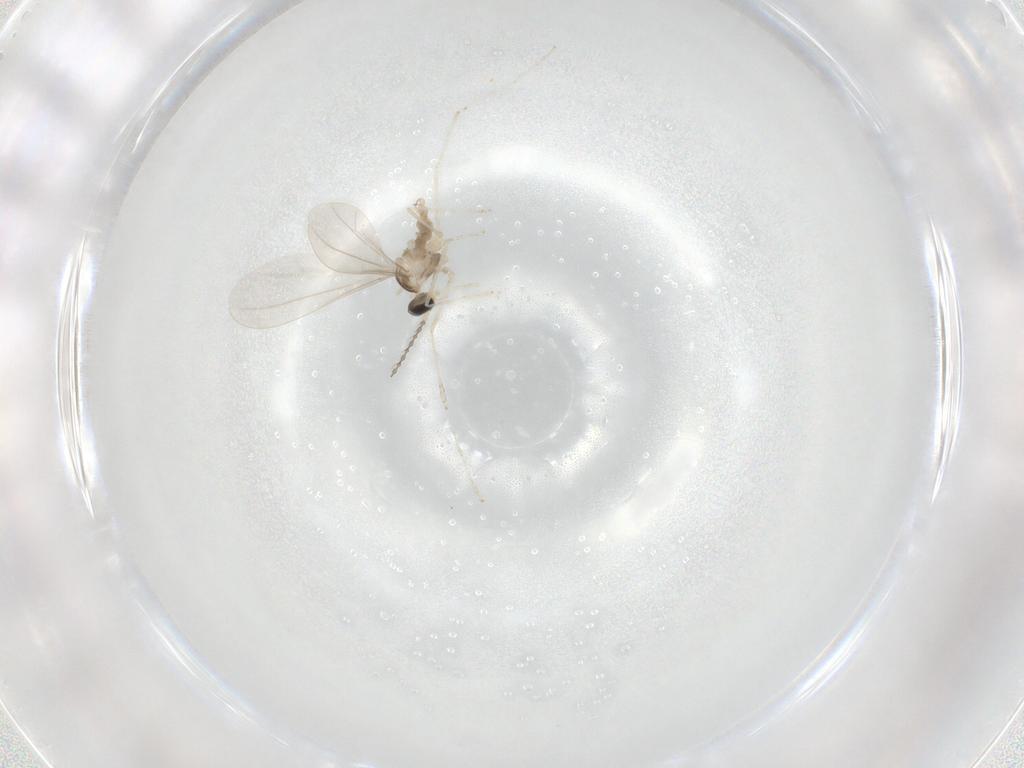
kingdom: Animalia
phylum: Arthropoda
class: Insecta
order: Diptera
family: Cecidomyiidae
